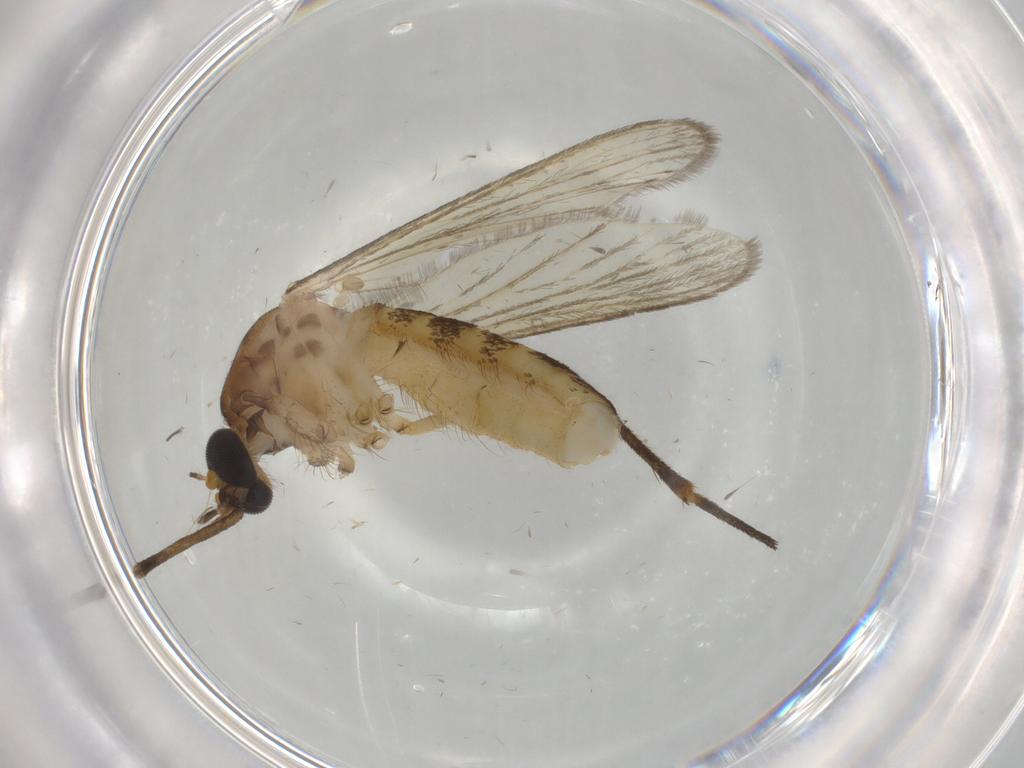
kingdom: Animalia
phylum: Arthropoda
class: Insecta
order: Diptera
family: Culicidae
